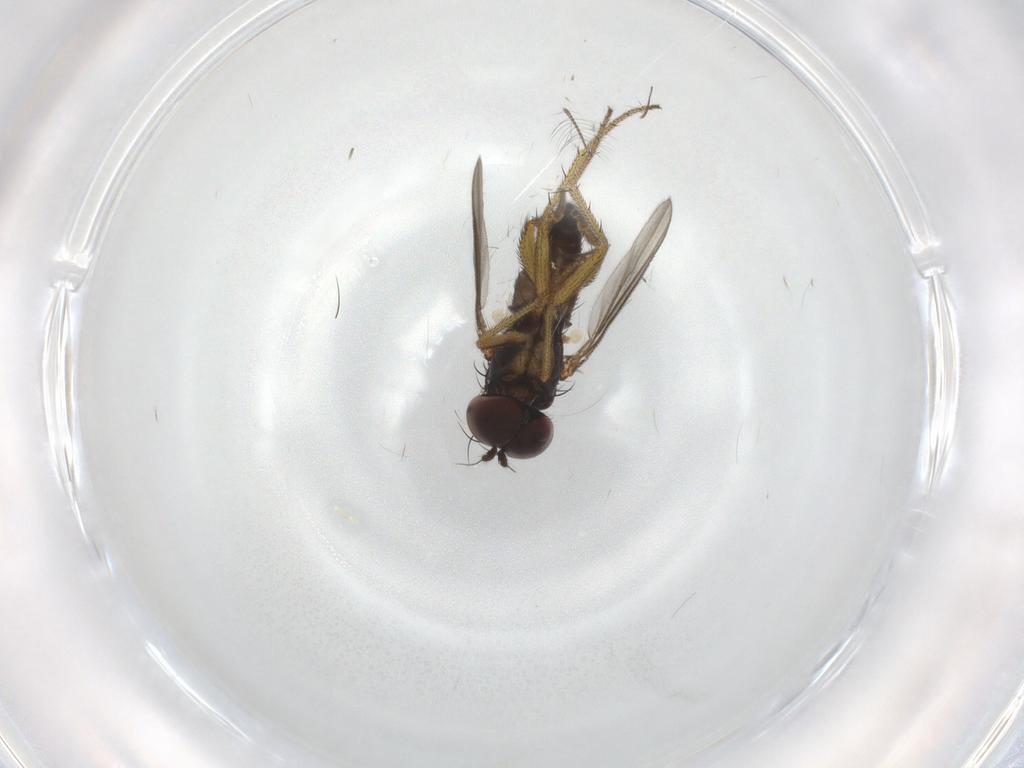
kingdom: Animalia
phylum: Arthropoda
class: Insecta
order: Diptera
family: Dolichopodidae
